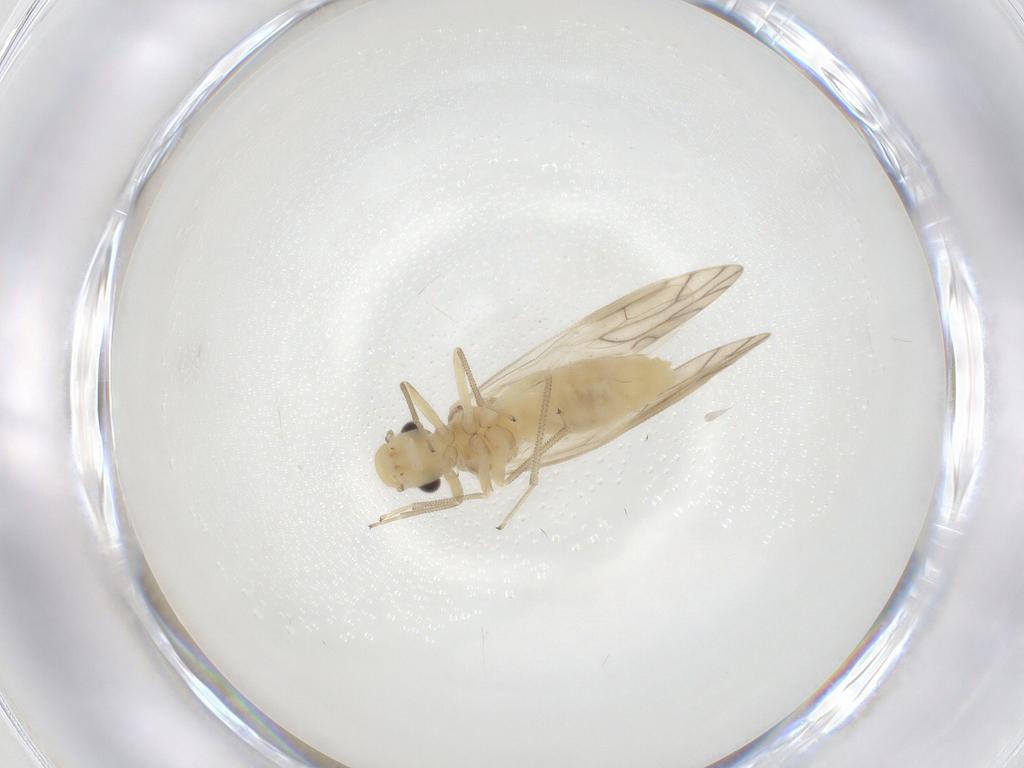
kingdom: Animalia
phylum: Arthropoda
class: Insecta
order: Psocodea
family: Caeciliusidae
